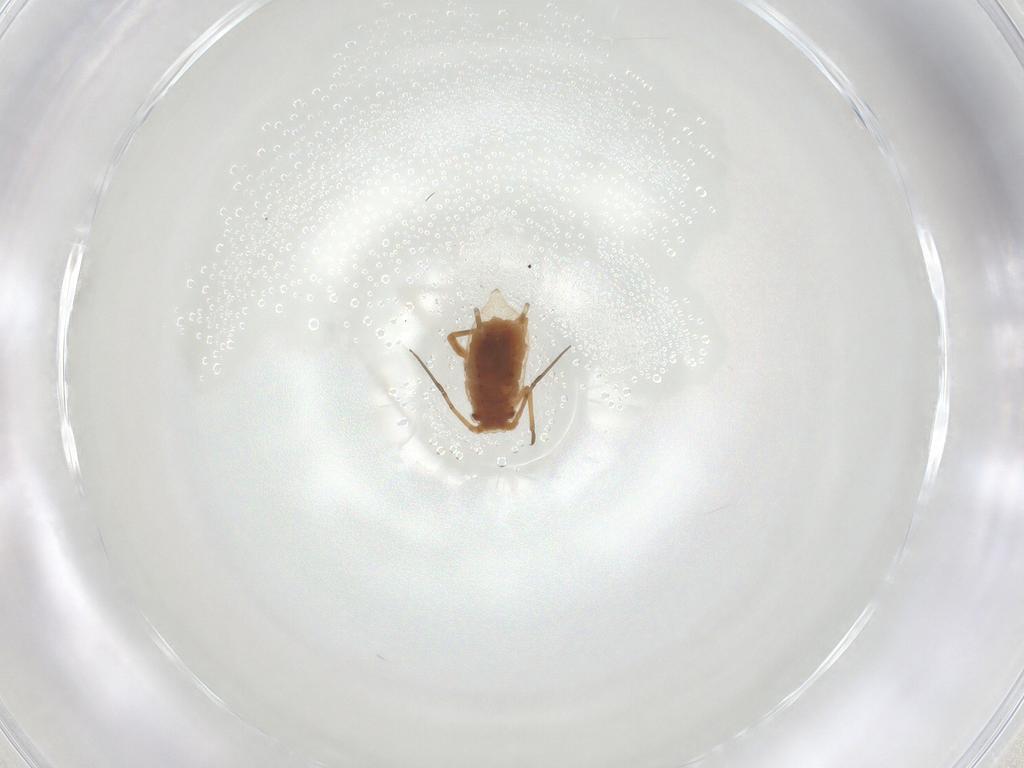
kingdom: Animalia
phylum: Arthropoda
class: Insecta
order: Hemiptera
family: Aphididae
